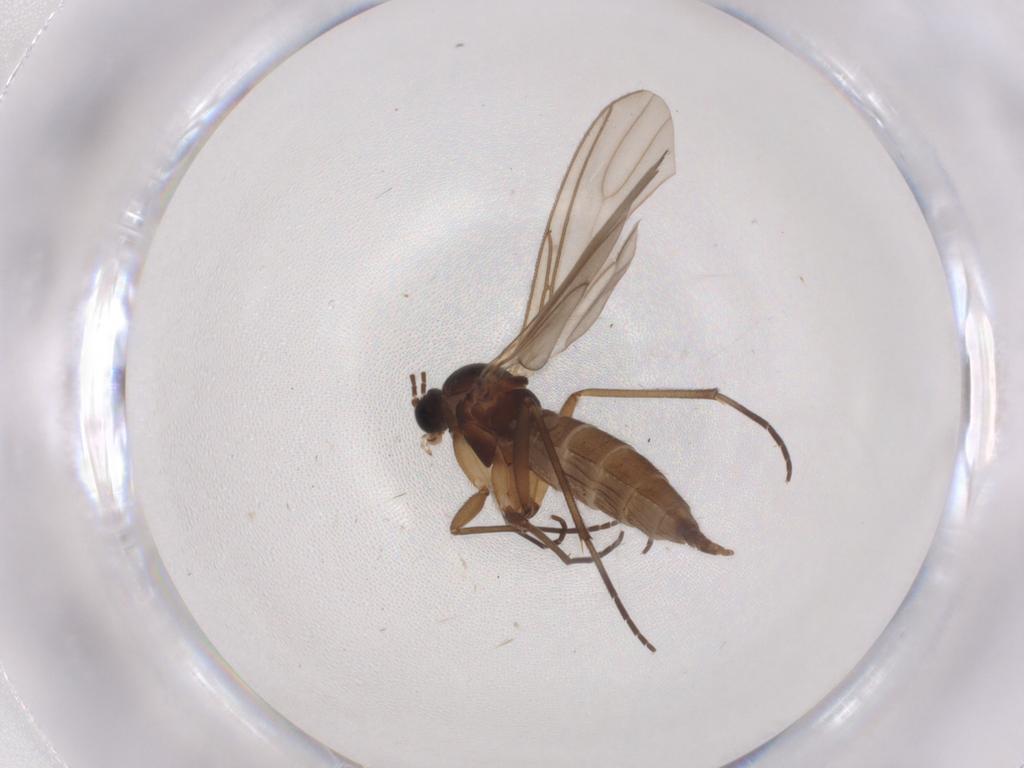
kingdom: Animalia
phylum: Arthropoda
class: Insecta
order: Diptera
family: Sciaridae
